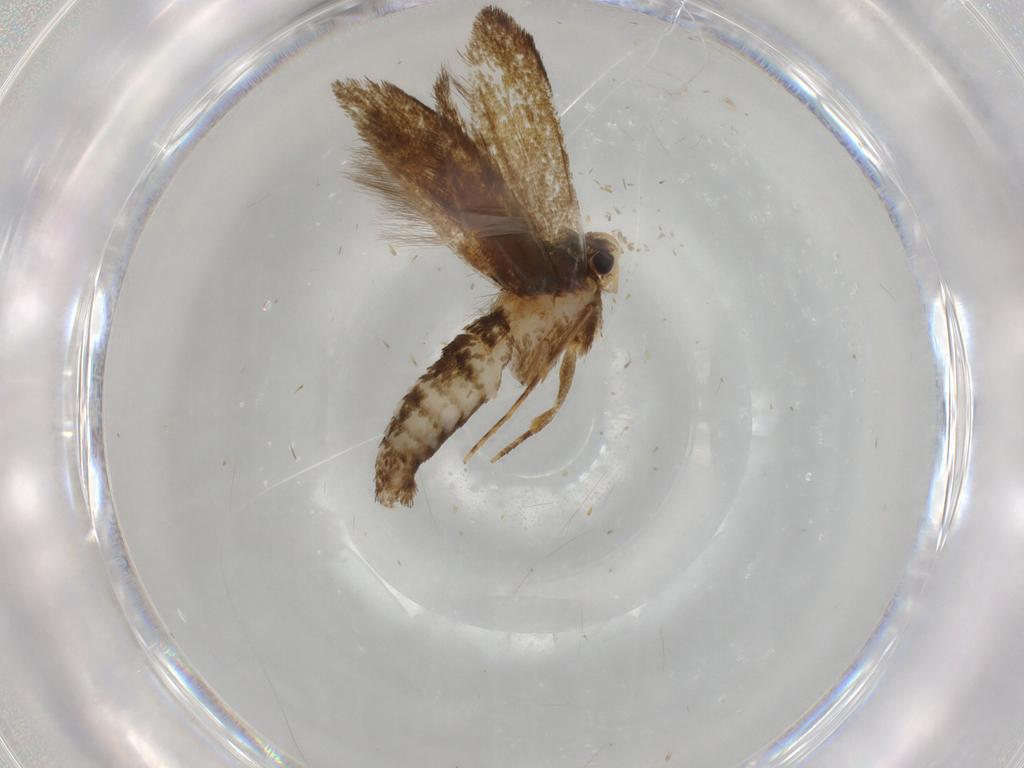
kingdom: Animalia
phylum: Arthropoda
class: Insecta
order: Lepidoptera
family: Tineidae
